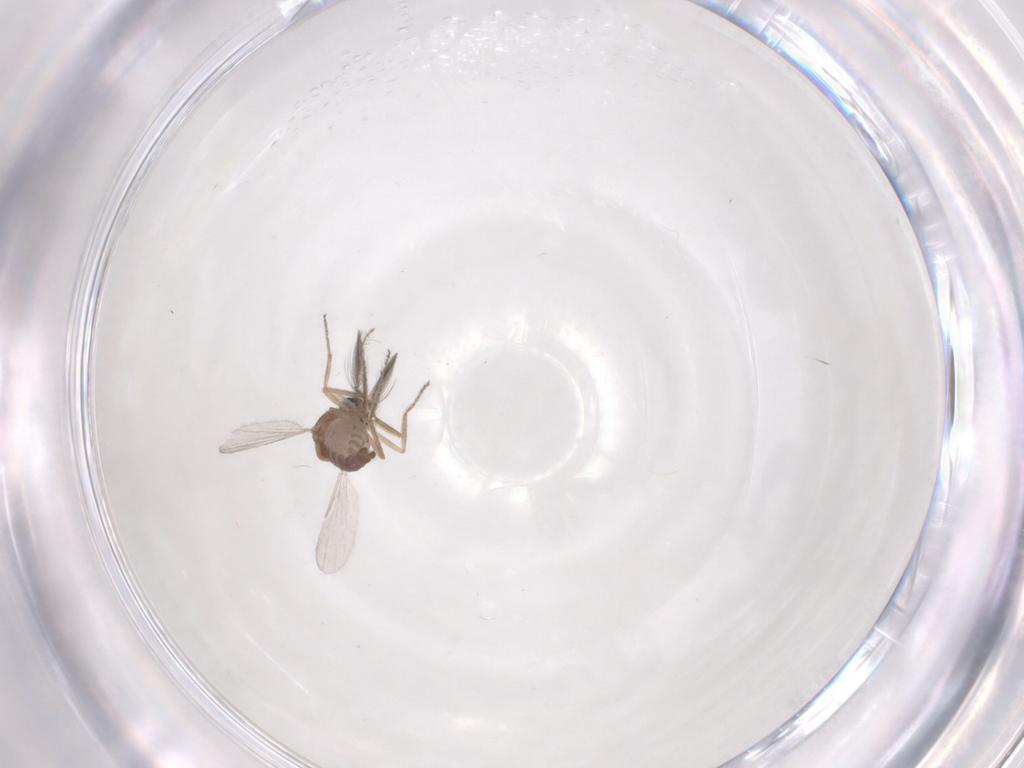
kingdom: Animalia
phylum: Arthropoda
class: Insecta
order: Diptera
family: Ceratopogonidae
